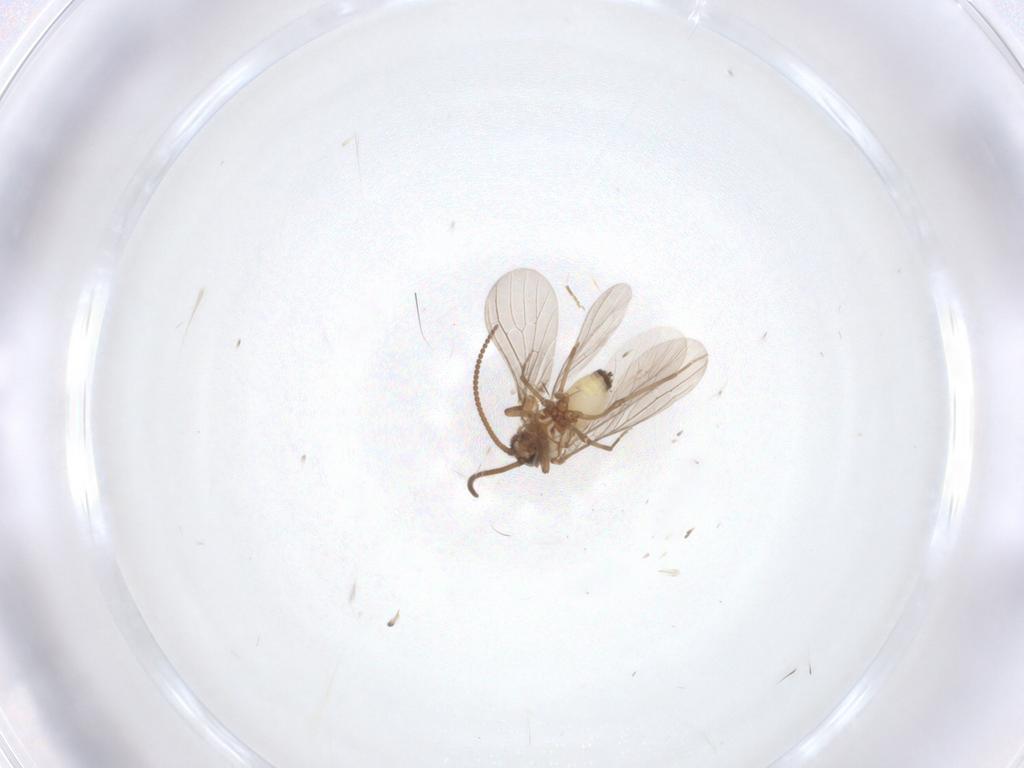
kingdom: Animalia
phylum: Arthropoda
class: Insecta
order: Neuroptera
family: Coniopterygidae
